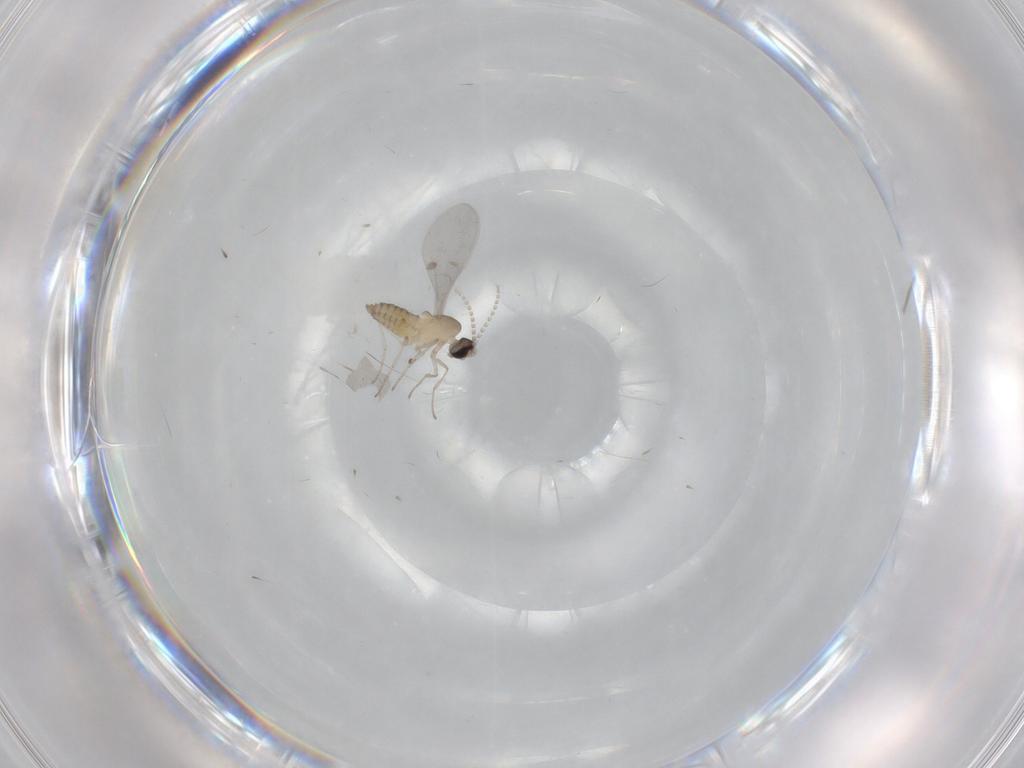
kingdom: Animalia
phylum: Arthropoda
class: Insecta
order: Diptera
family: Cecidomyiidae
